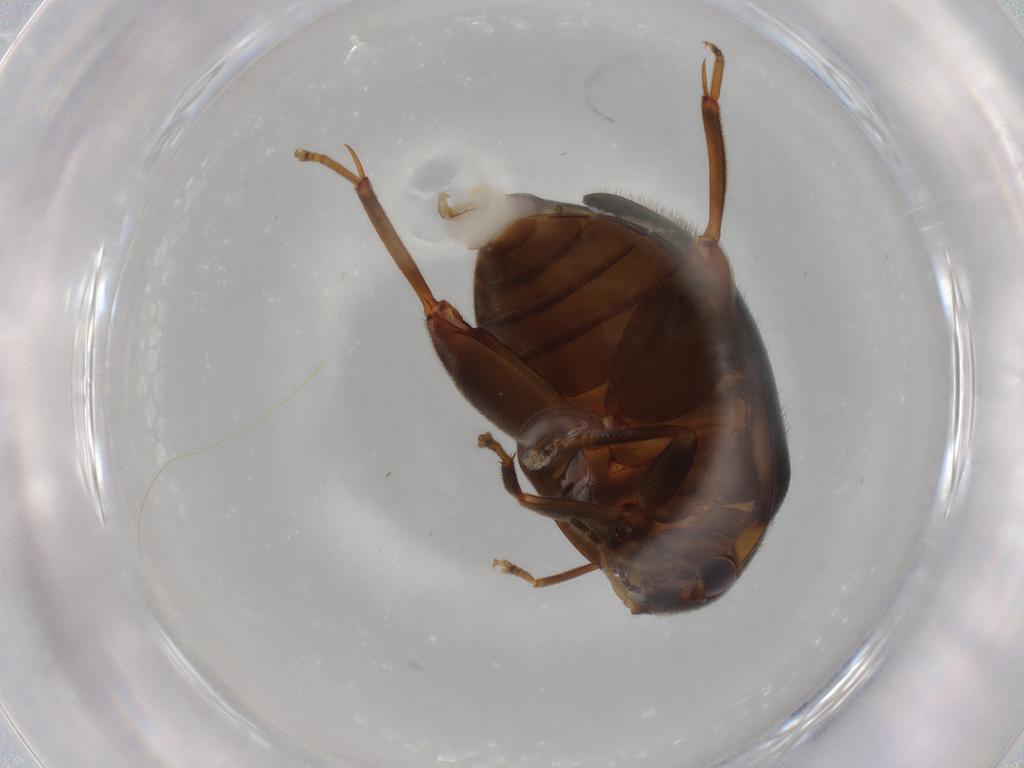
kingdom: Animalia
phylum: Arthropoda
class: Insecta
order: Coleoptera
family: Scirtidae
